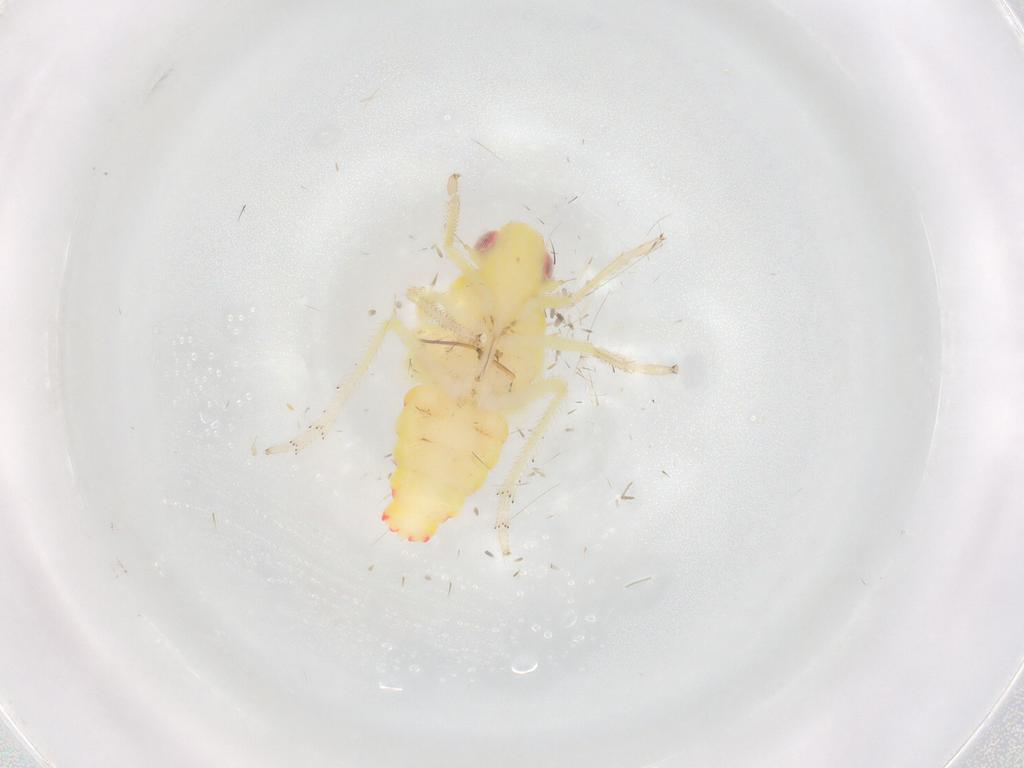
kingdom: Animalia
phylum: Arthropoda
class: Insecta
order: Hemiptera
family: Tropiduchidae
